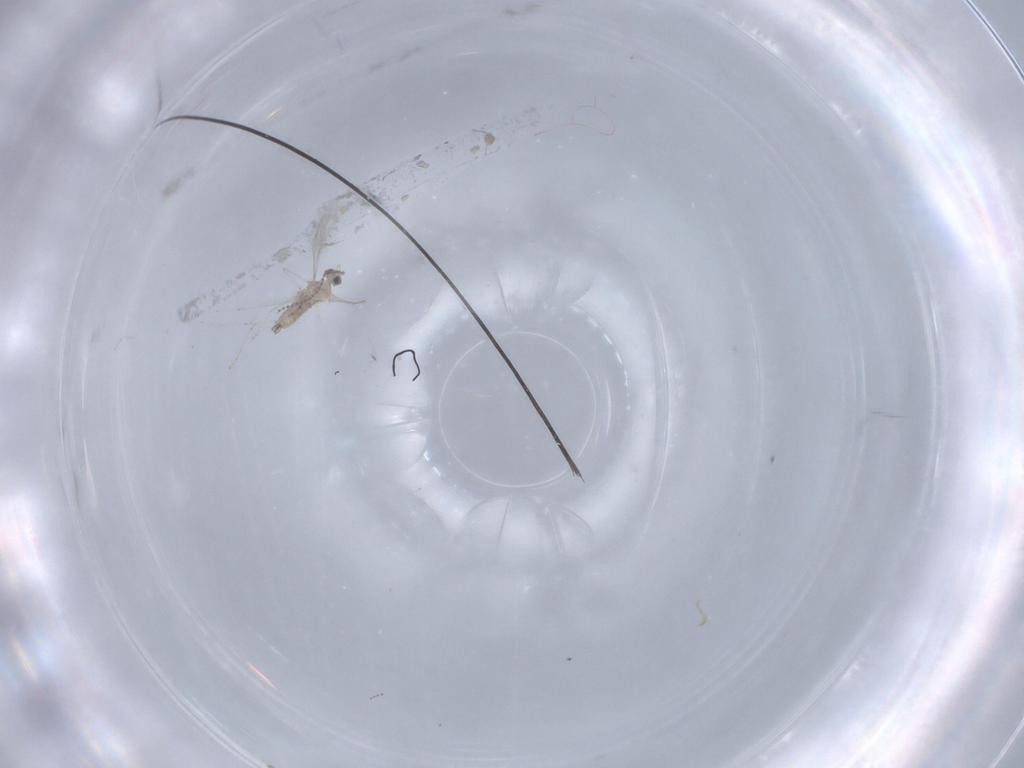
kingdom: Animalia
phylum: Arthropoda
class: Insecta
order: Diptera
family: Cecidomyiidae
